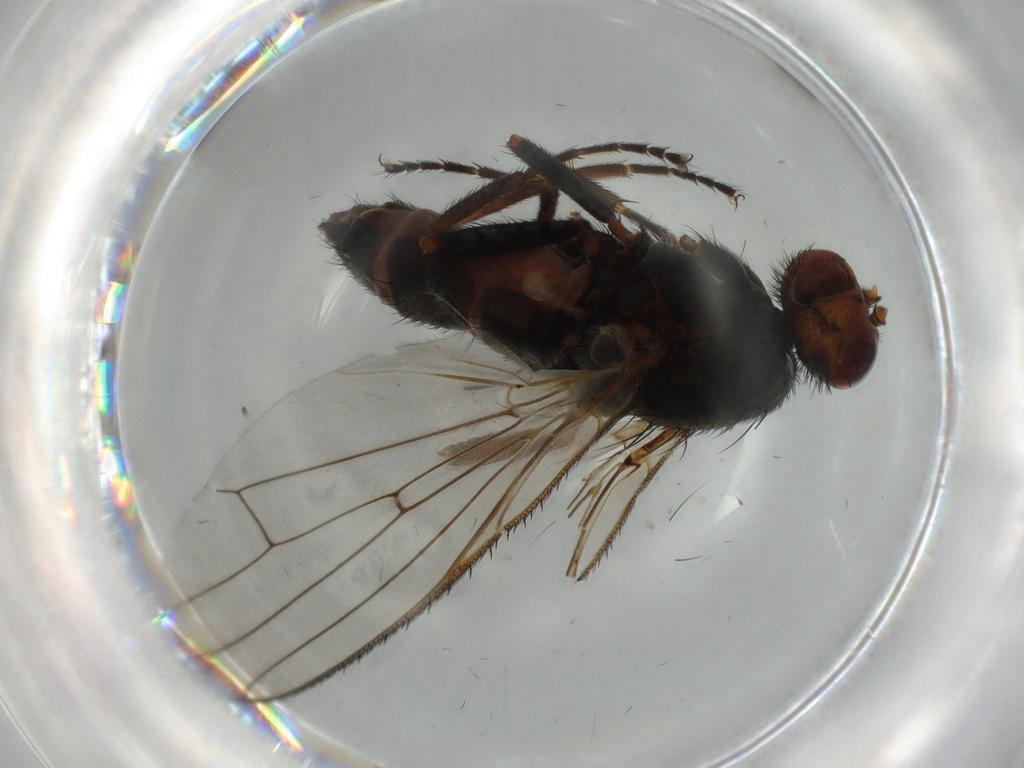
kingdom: Animalia
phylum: Arthropoda
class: Insecta
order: Diptera
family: Heleomyzidae
